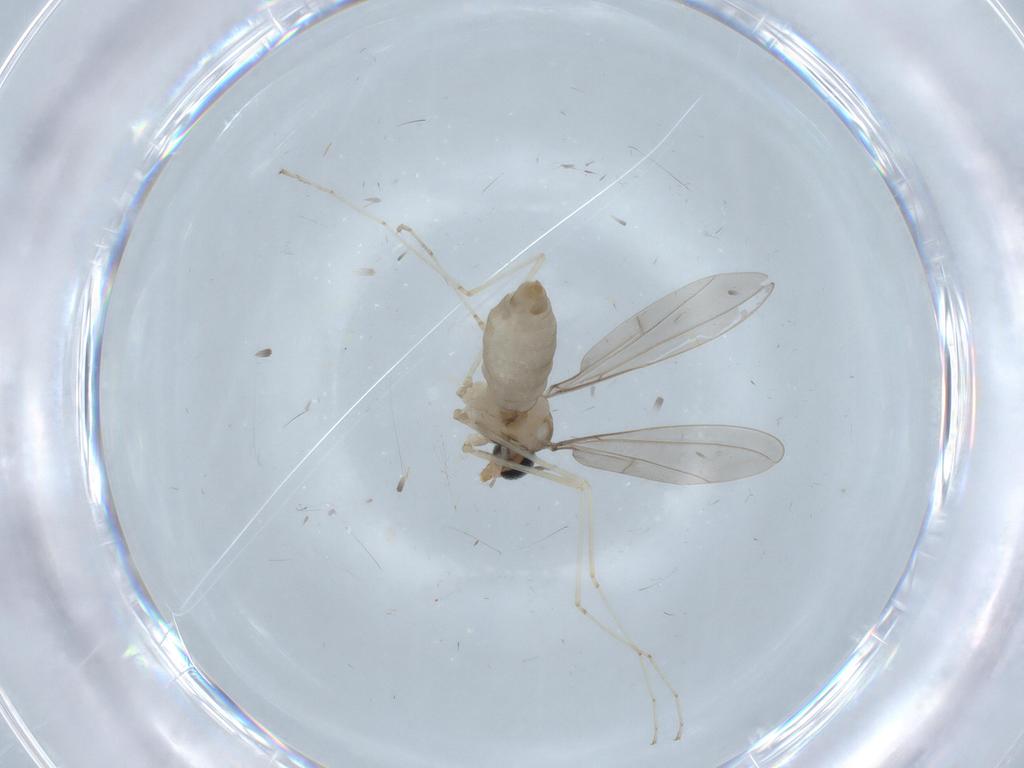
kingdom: Animalia
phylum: Arthropoda
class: Insecta
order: Diptera
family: Cecidomyiidae
